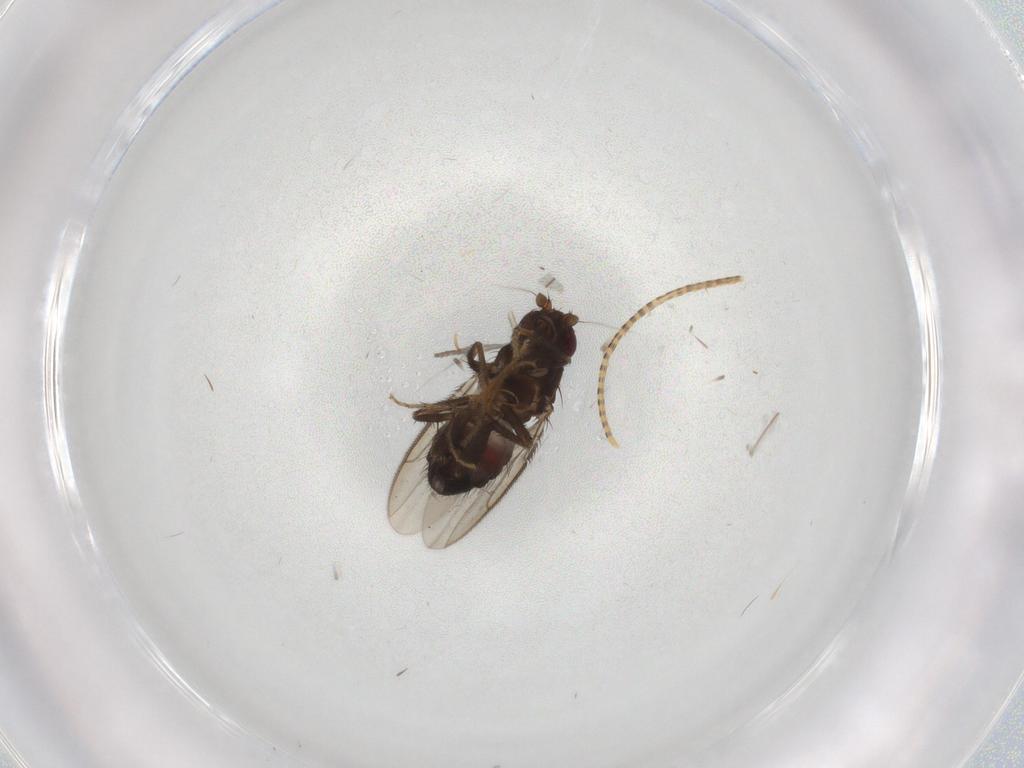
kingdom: Animalia
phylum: Arthropoda
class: Insecta
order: Diptera
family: Sphaeroceridae
